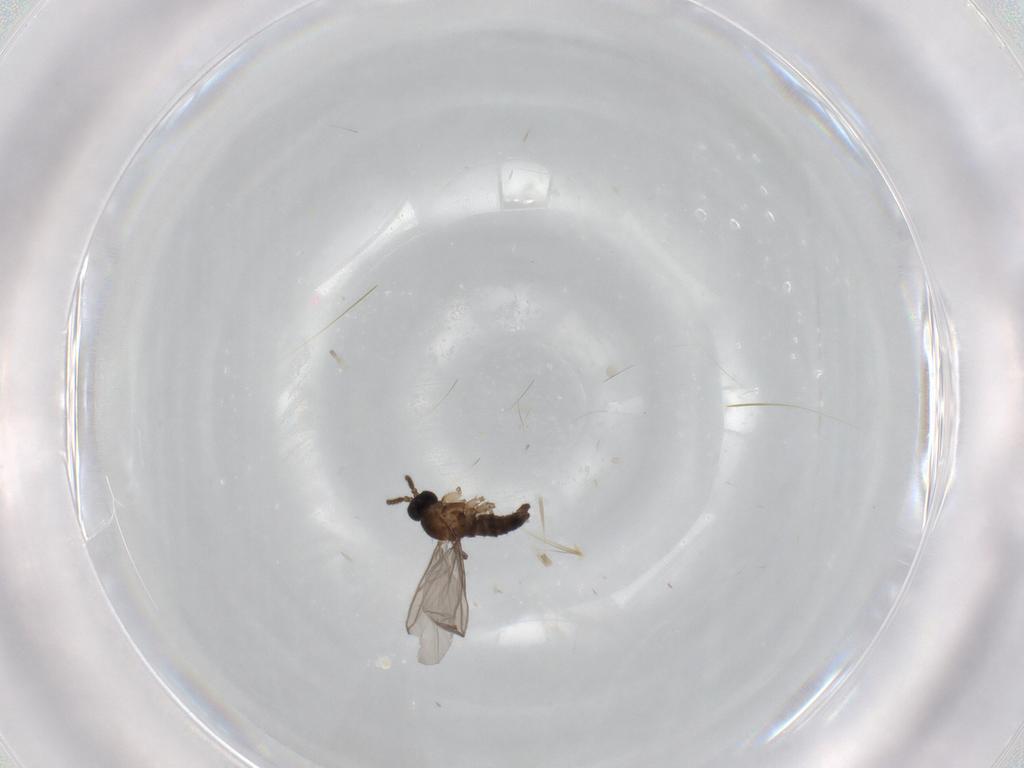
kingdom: Animalia
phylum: Arthropoda
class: Insecta
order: Diptera
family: Sciaridae
